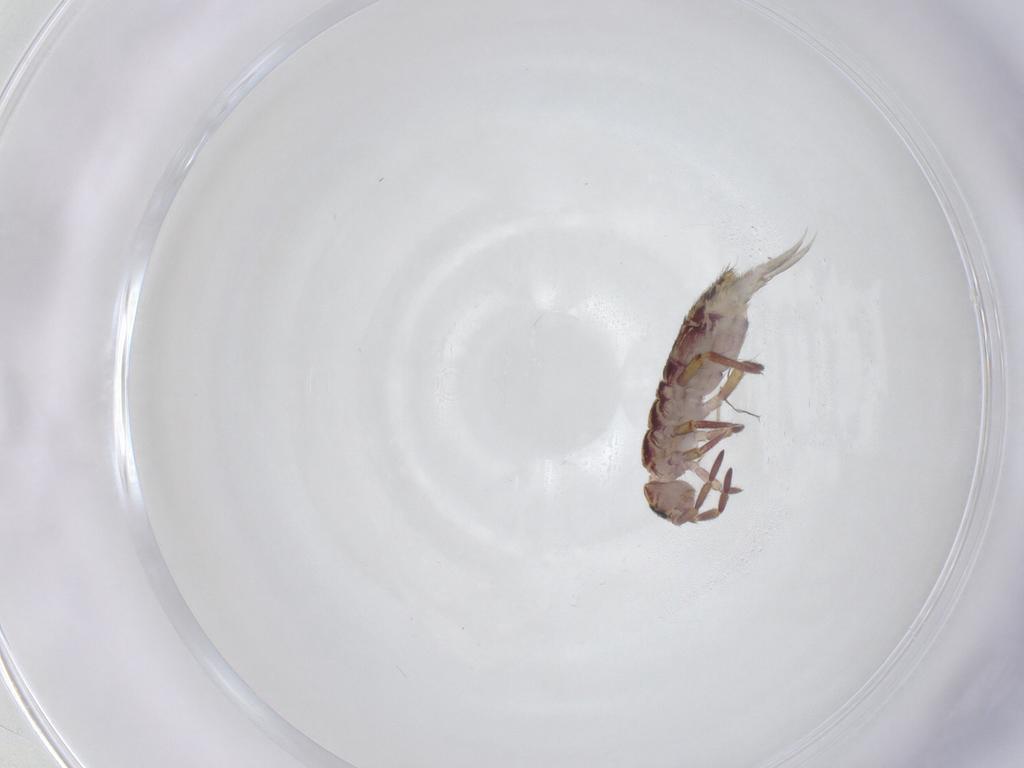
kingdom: Animalia
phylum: Arthropoda
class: Collembola
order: Entomobryomorpha
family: Isotomidae
